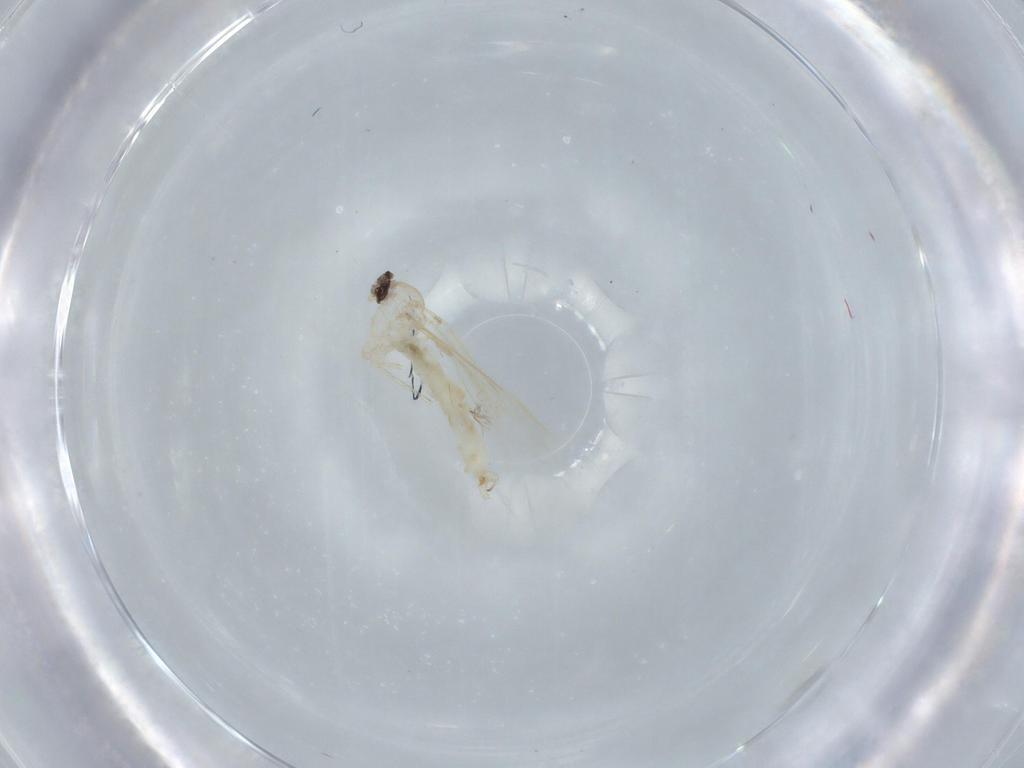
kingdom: Animalia
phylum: Arthropoda
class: Insecta
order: Diptera
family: Cecidomyiidae
